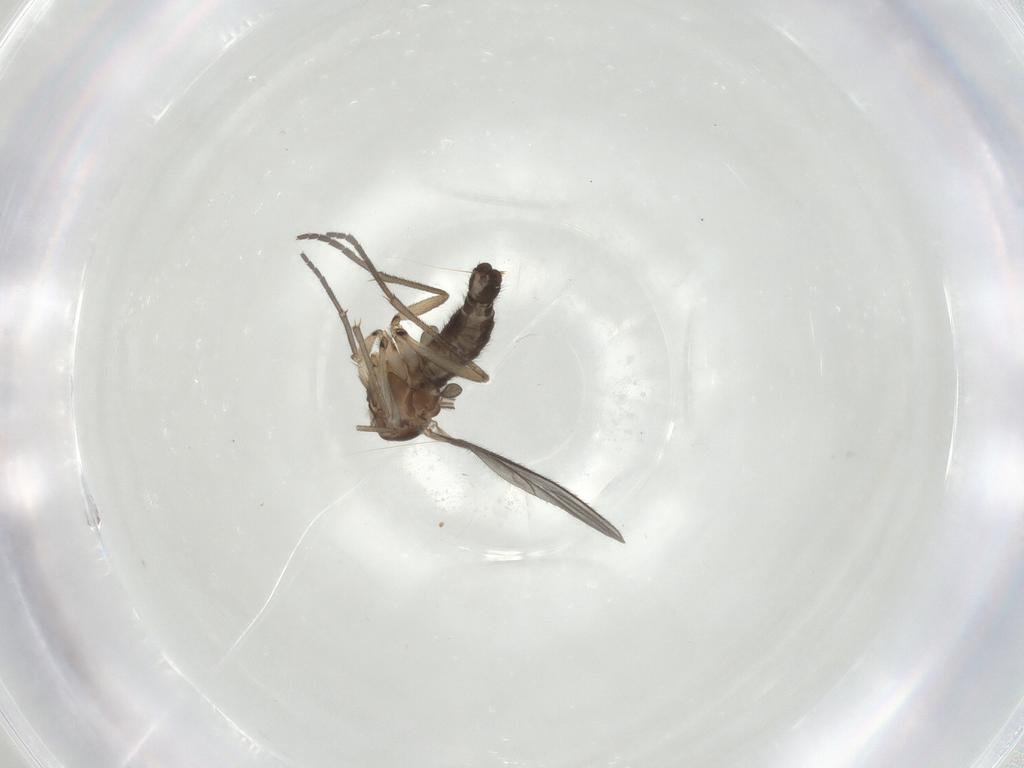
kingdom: Animalia
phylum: Arthropoda
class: Insecta
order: Diptera
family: Sciaridae
